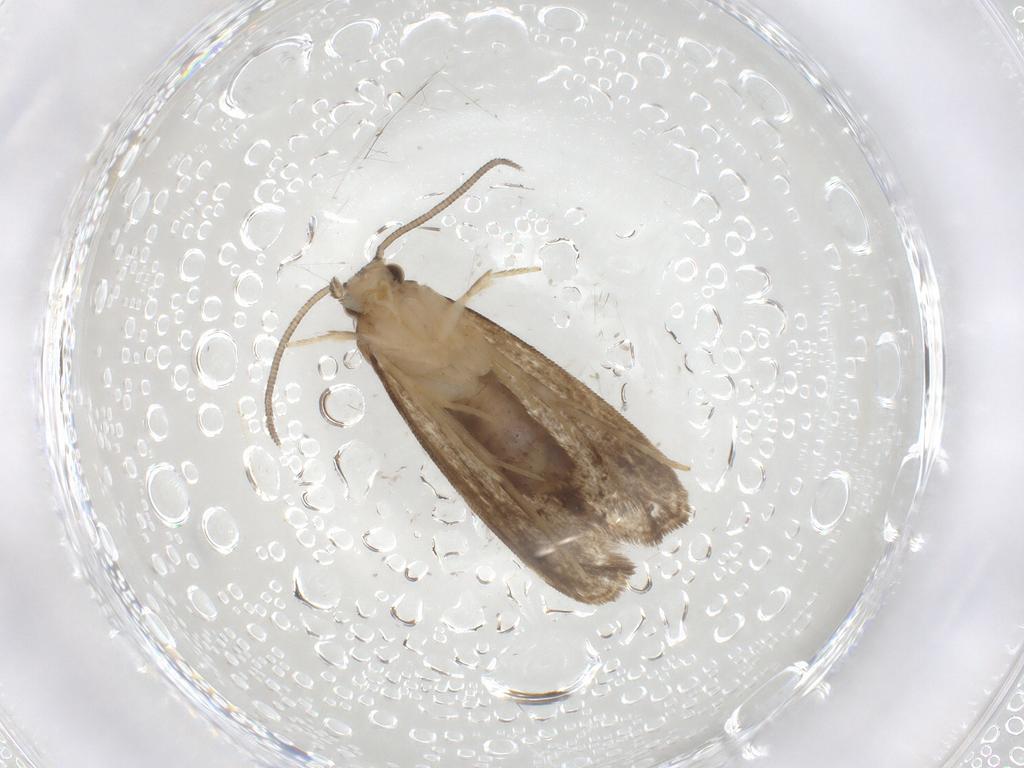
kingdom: Animalia
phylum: Arthropoda
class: Insecta
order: Lepidoptera
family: Dryadaulidae
